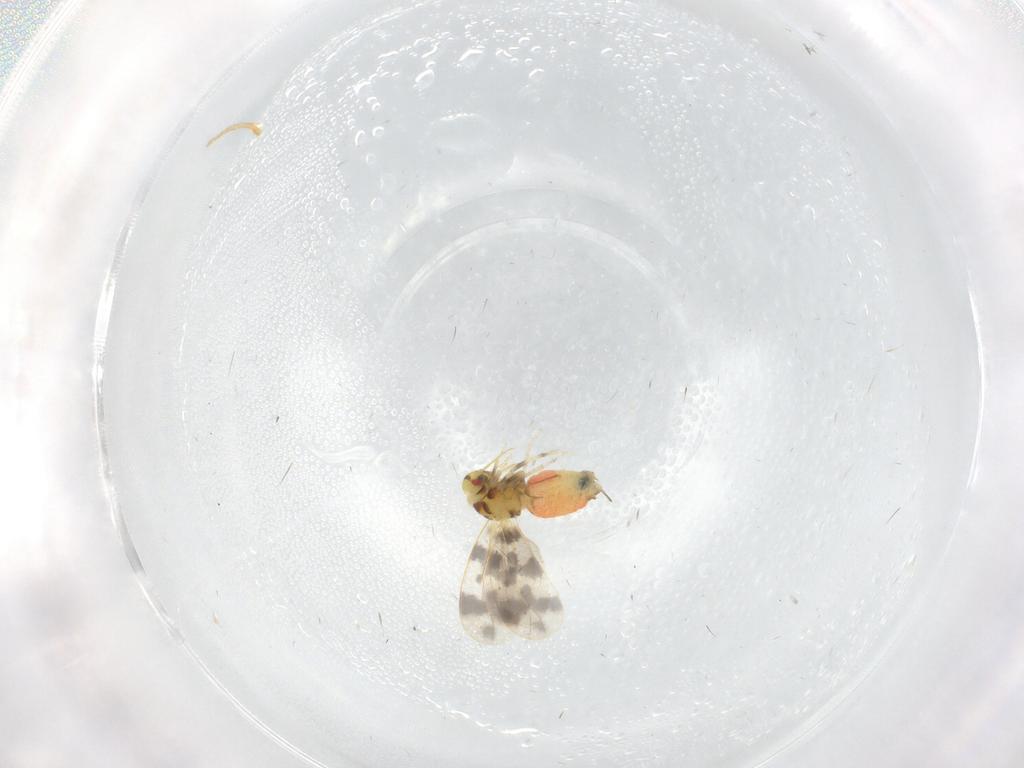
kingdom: Animalia
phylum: Arthropoda
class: Insecta
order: Hemiptera
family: Aleyrodidae
